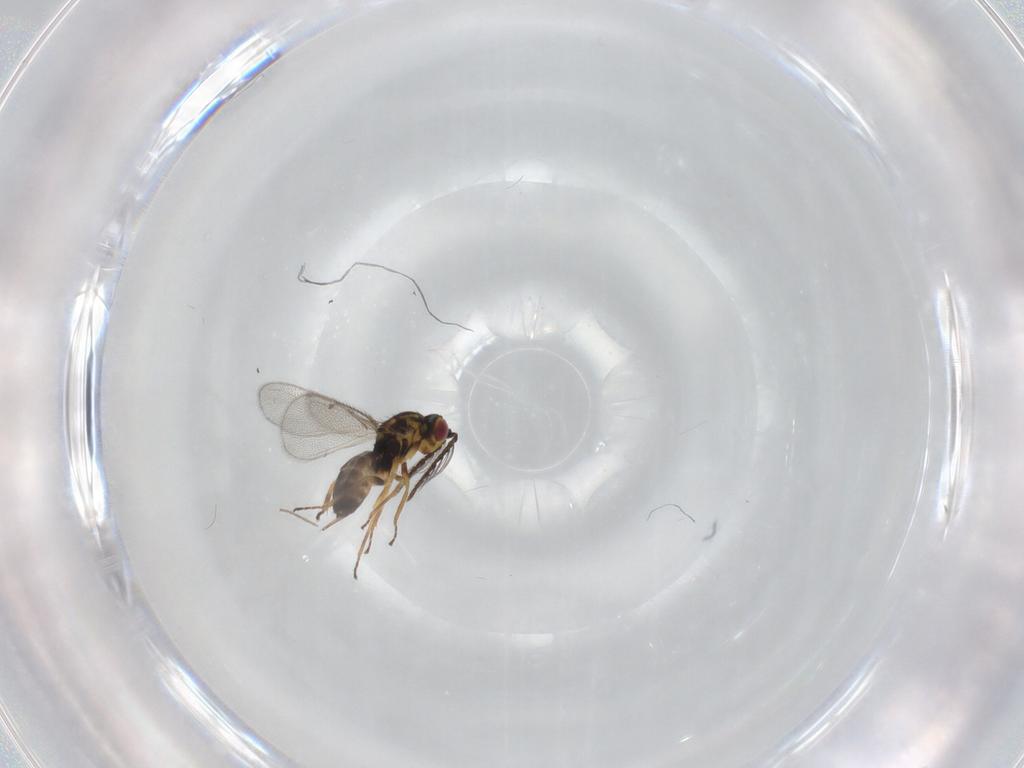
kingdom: Animalia
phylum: Arthropoda
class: Insecta
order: Hymenoptera
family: Eulophidae
